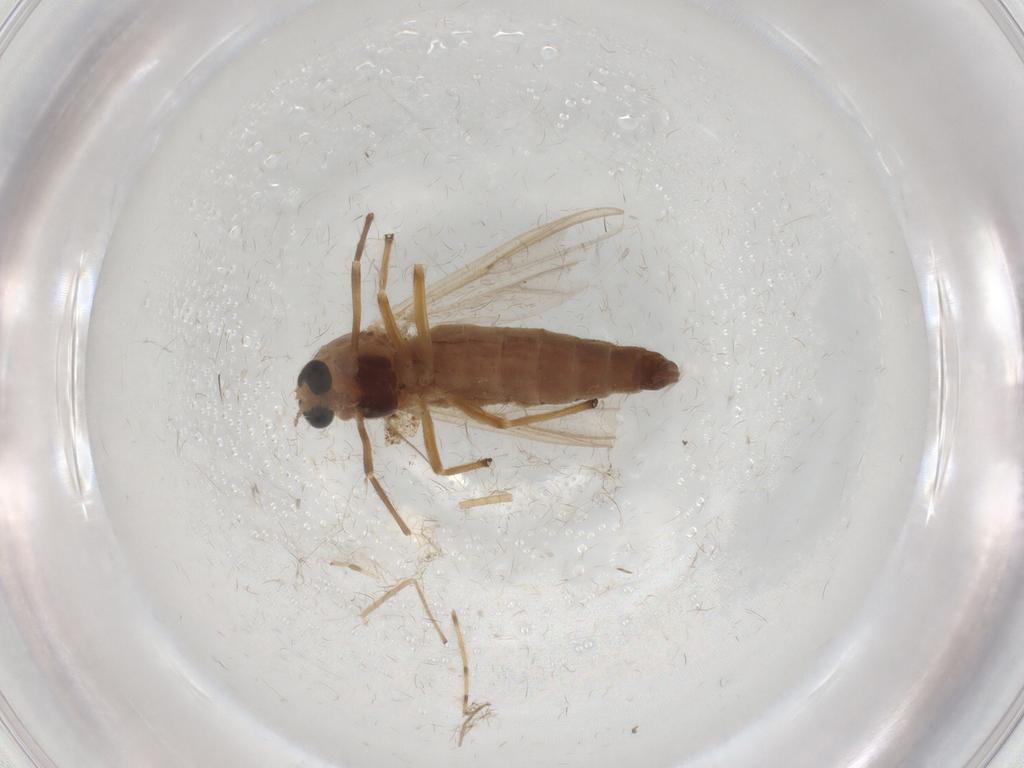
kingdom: Animalia
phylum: Arthropoda
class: Insecta
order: Diptera
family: Chironomidae
